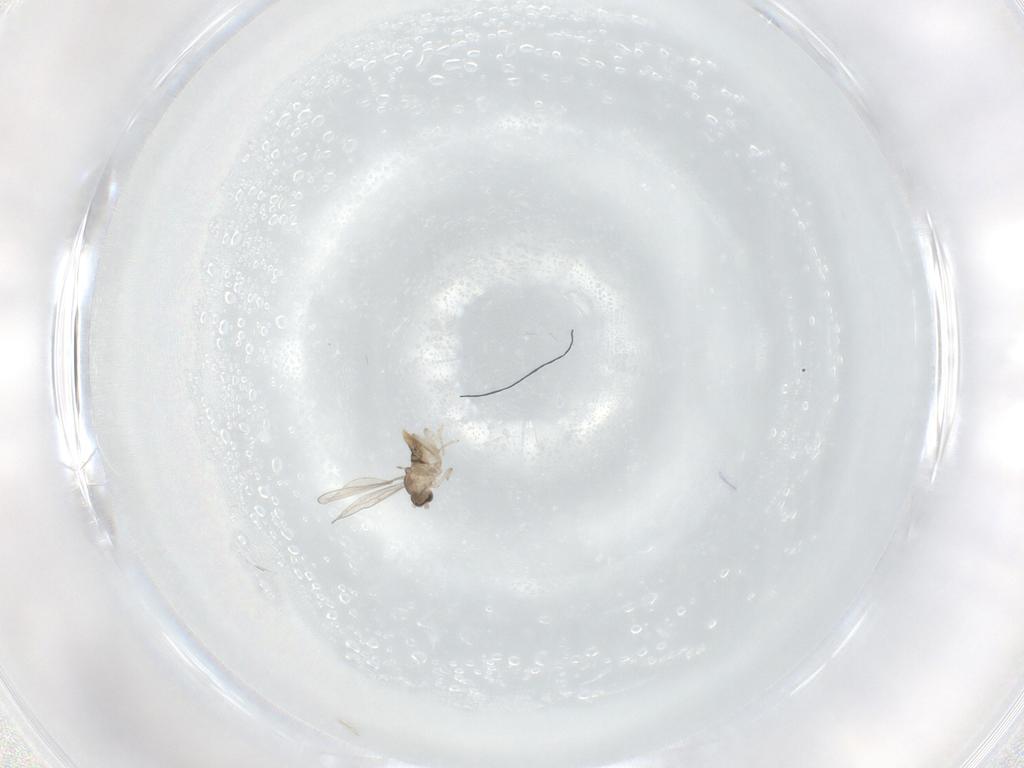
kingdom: Animalia
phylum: Arthropoda
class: Insecta
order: Diptera
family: Cecidomyiidae
